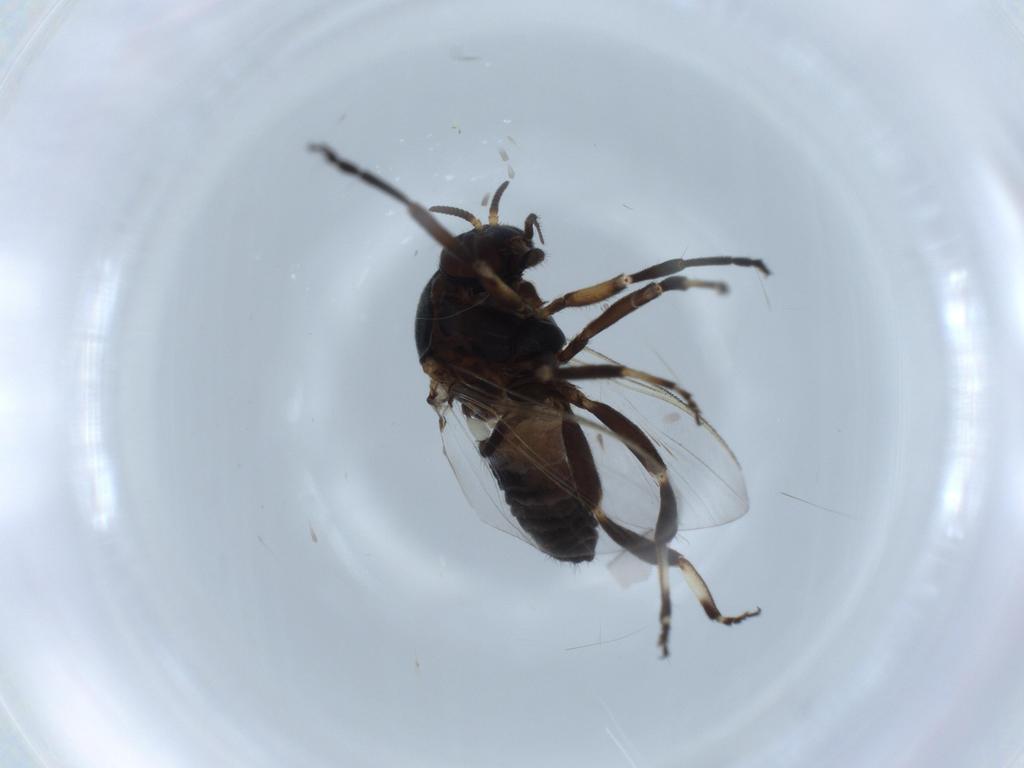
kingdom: Animalia
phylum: Arthropoda
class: Insecta
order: Diptera
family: Phoridae
